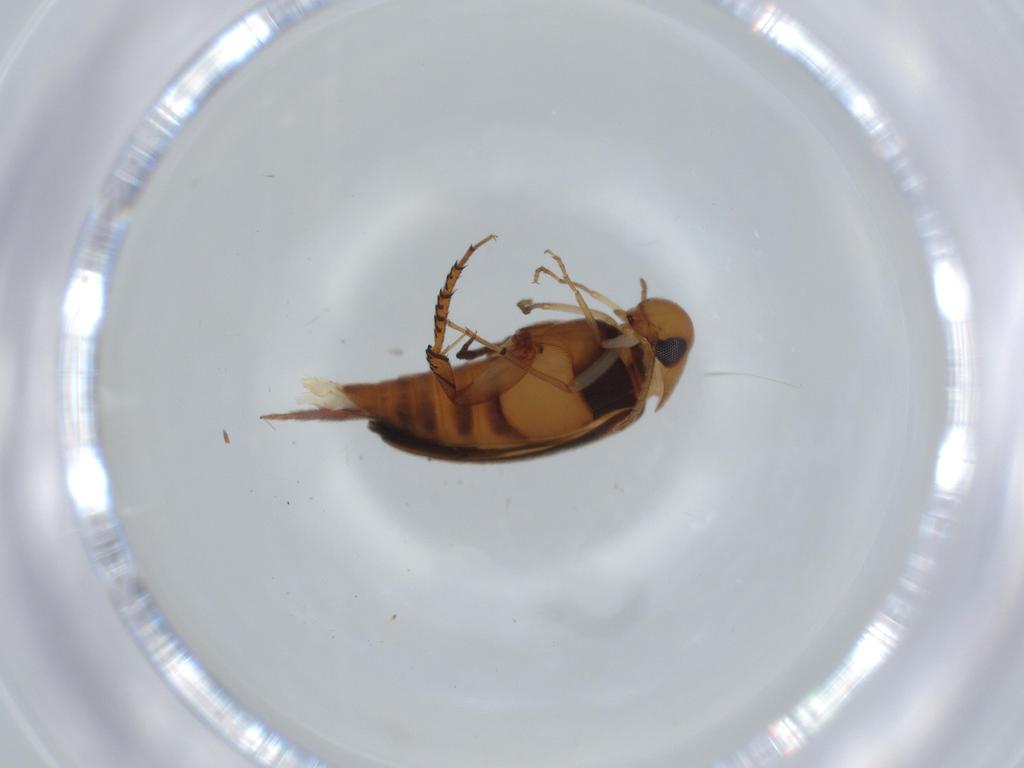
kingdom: Animalia
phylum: Arthropoda
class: Insecta
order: Coleoptera
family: Mordellidae
